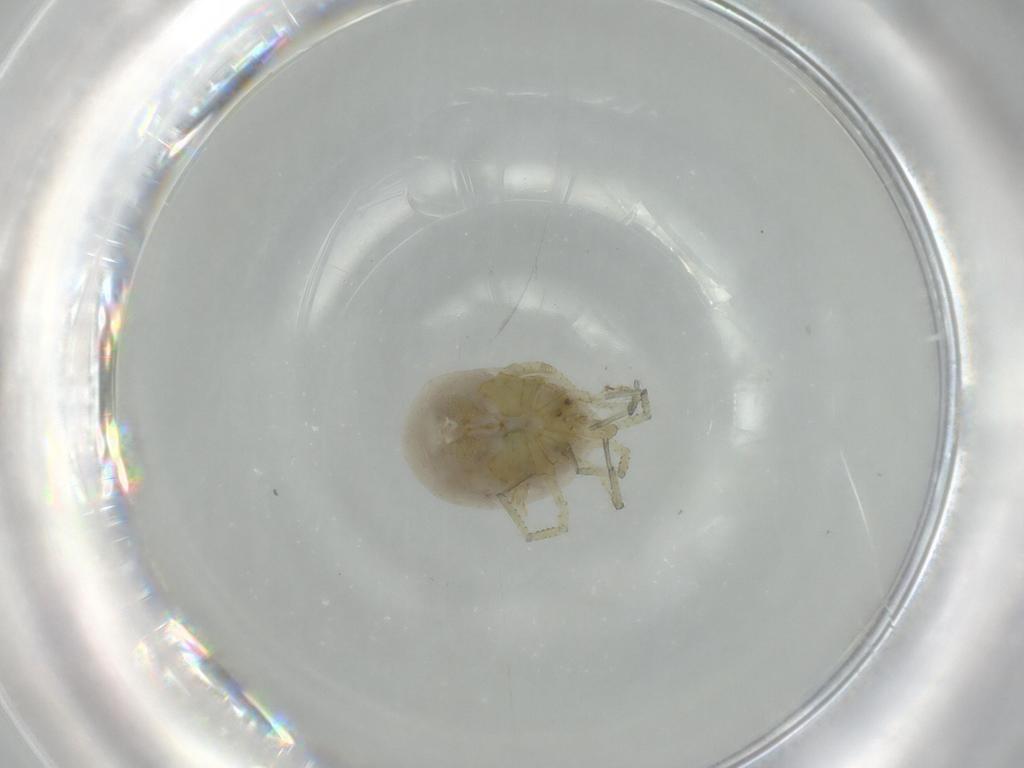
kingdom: Animalia
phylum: Arthropoda
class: Arachnida
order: Trombidiformes
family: Pionidae
